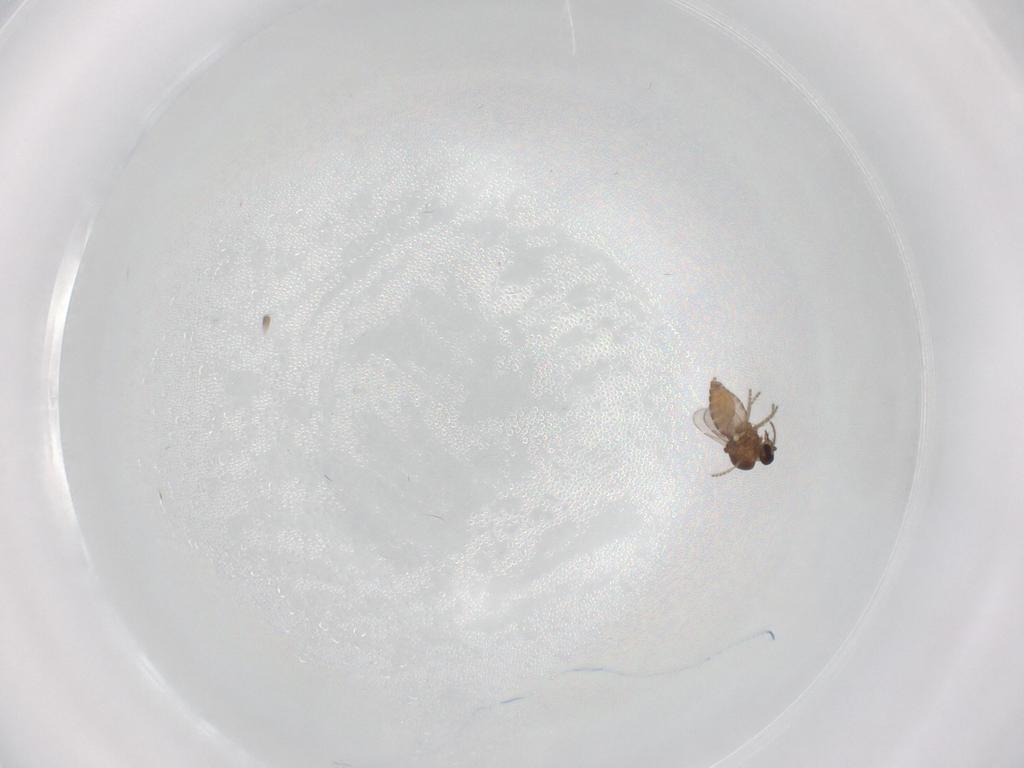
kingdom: Animalia
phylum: Arthropoda
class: Insecta
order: Diptera
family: Ceratopogonidae
